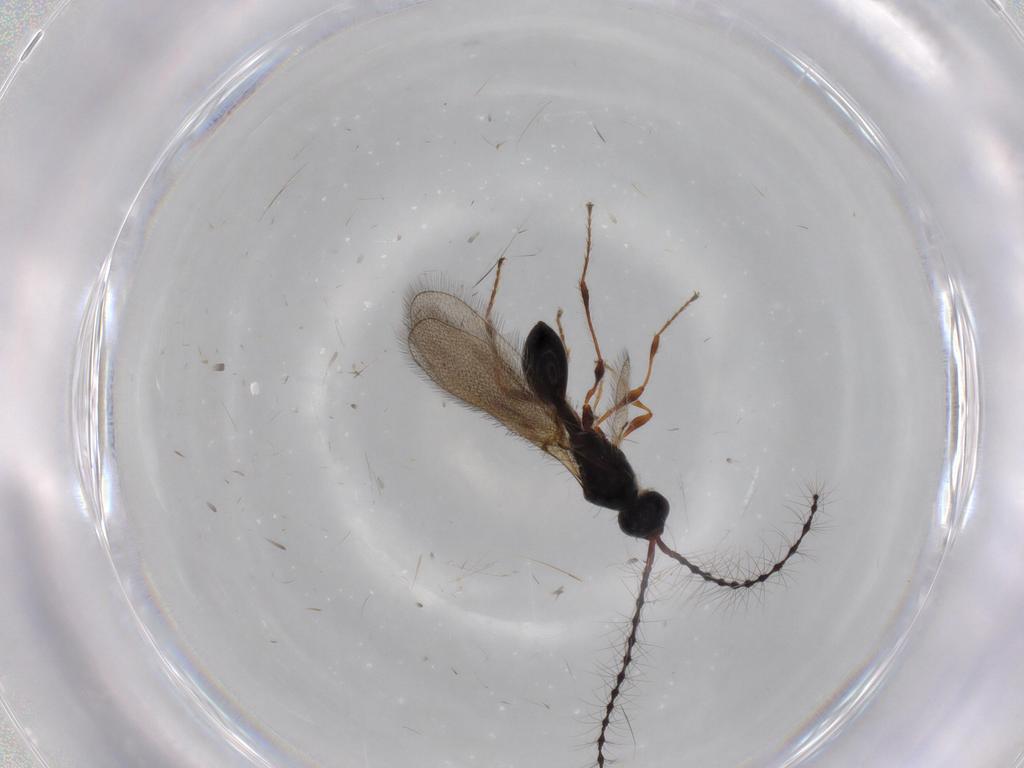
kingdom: Animalia
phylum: Arthropoda
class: Insecta
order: Hymenoptera
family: Diapriidae
